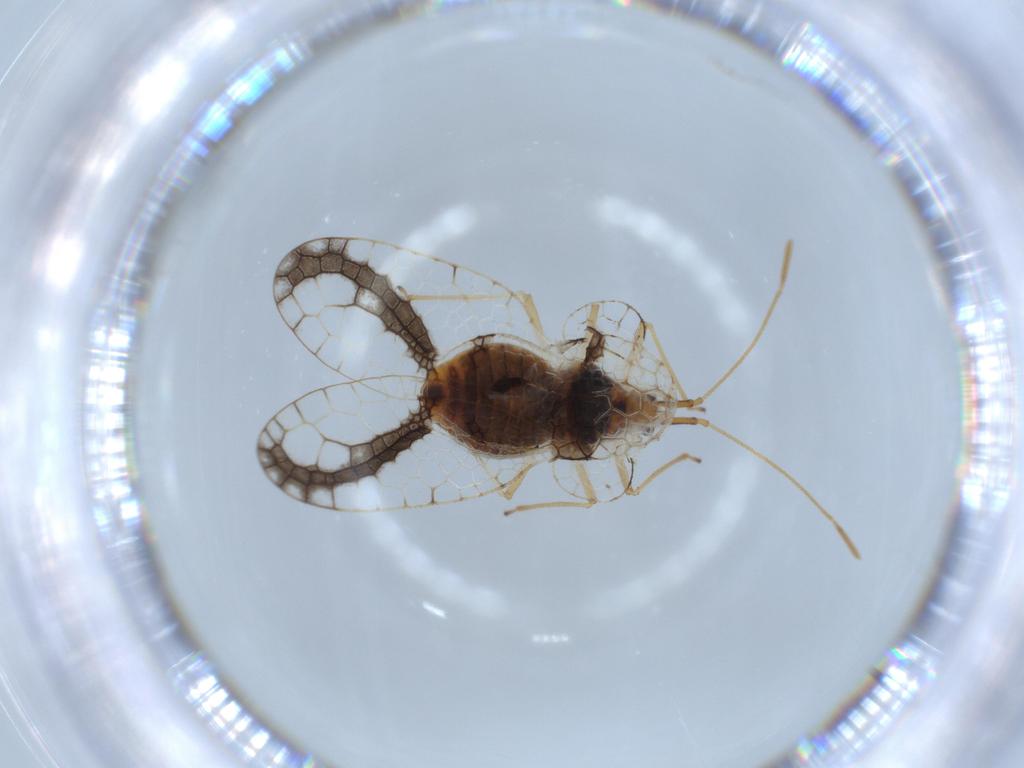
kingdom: Animalia
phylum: Arthropoda
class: Insecta
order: Hemiptera
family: Tingidae
